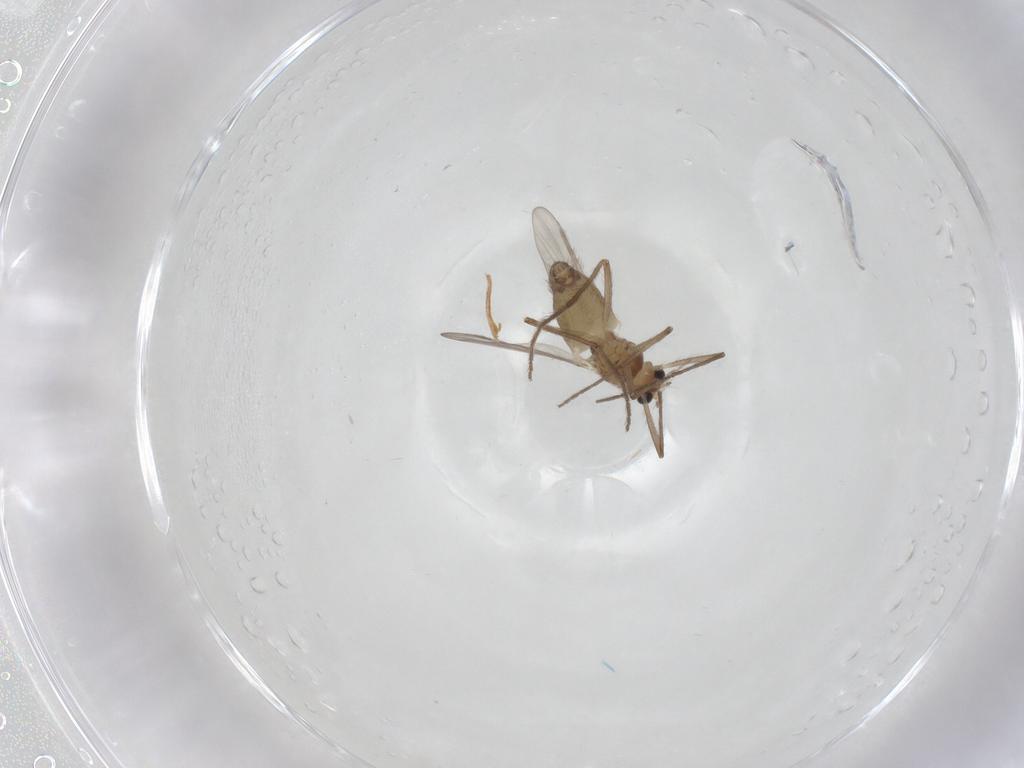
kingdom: Animalia
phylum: Arthropoda
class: Insecta
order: Diptera
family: Chironomidae
